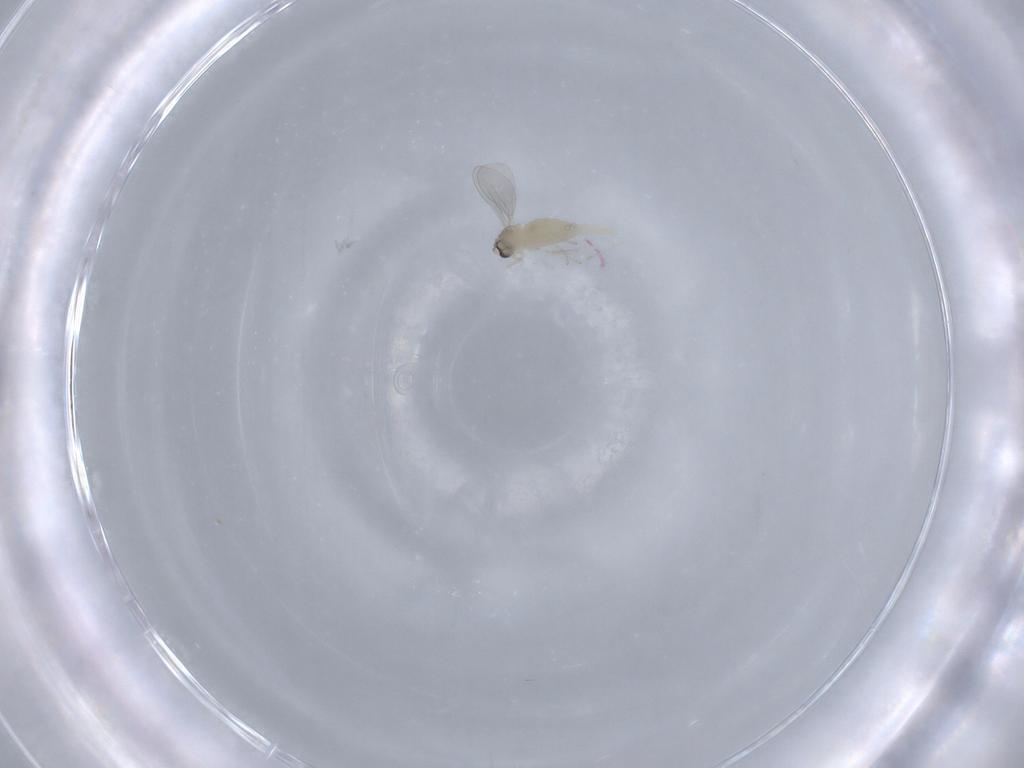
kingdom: Animalia
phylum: Arthropoda
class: Insecta
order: Diptera
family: Cecidomyiidae
